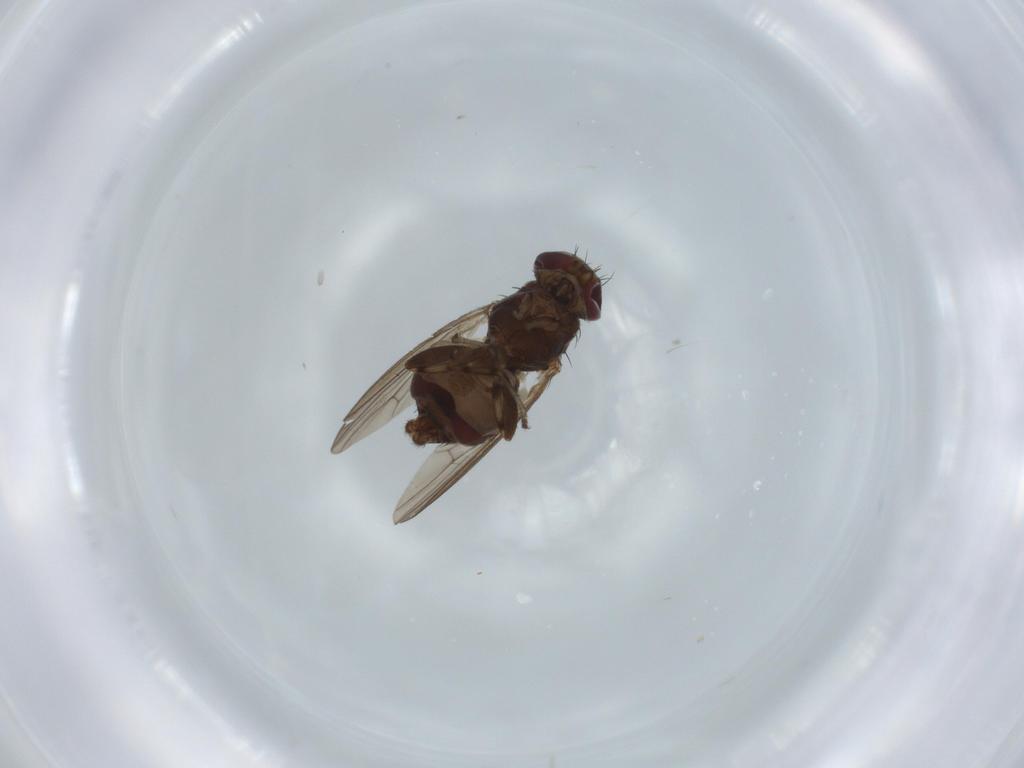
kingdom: Animalia
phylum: Arthropoda
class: Insecta
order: Diptera
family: Heleomyzidae
